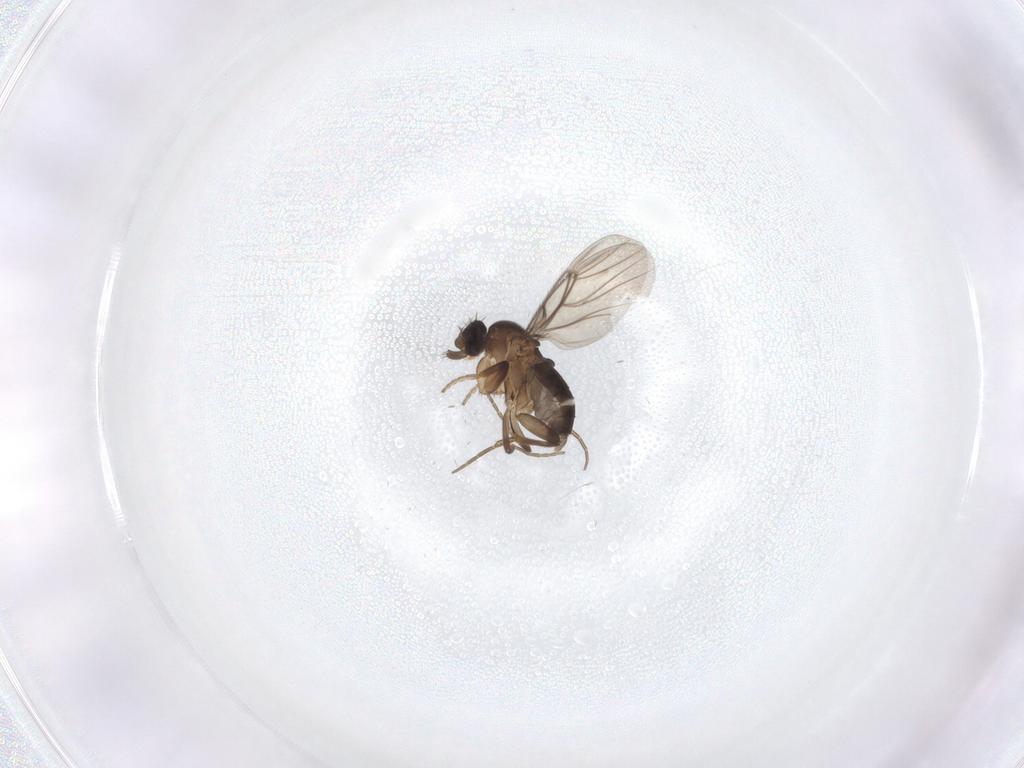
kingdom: Animalia
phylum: Arthropoda
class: Insecta
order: Diptera
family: Phoridae
